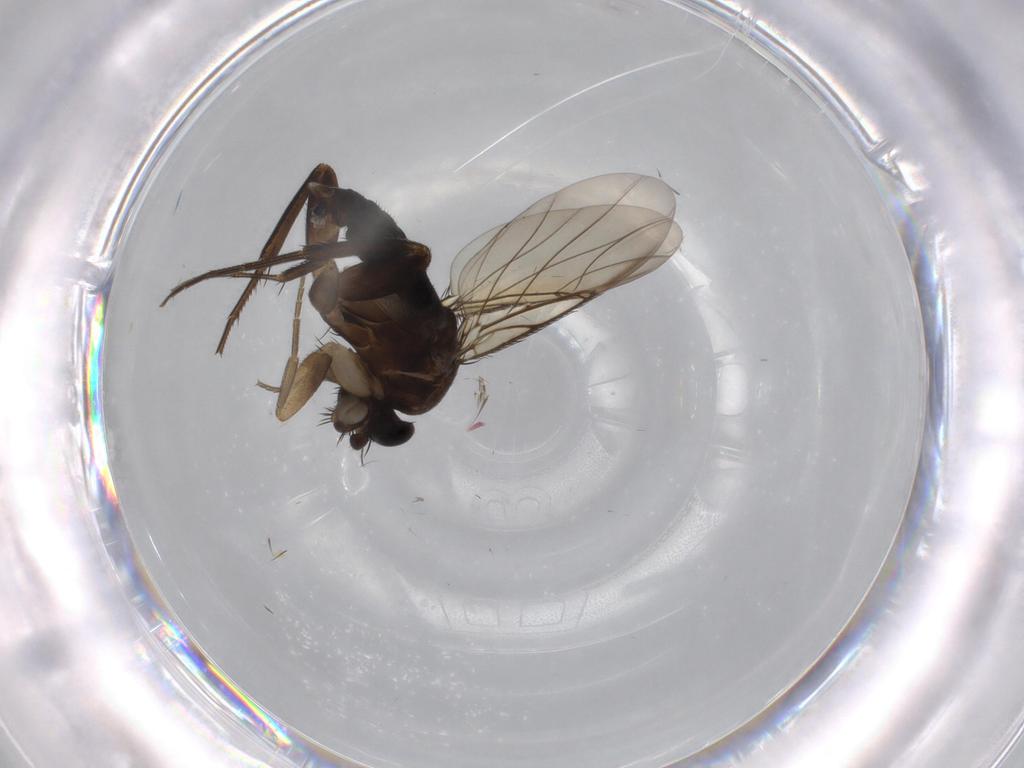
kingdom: Animalia
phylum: Arthropoda
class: Insecta
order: Diptera
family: Phoridae
